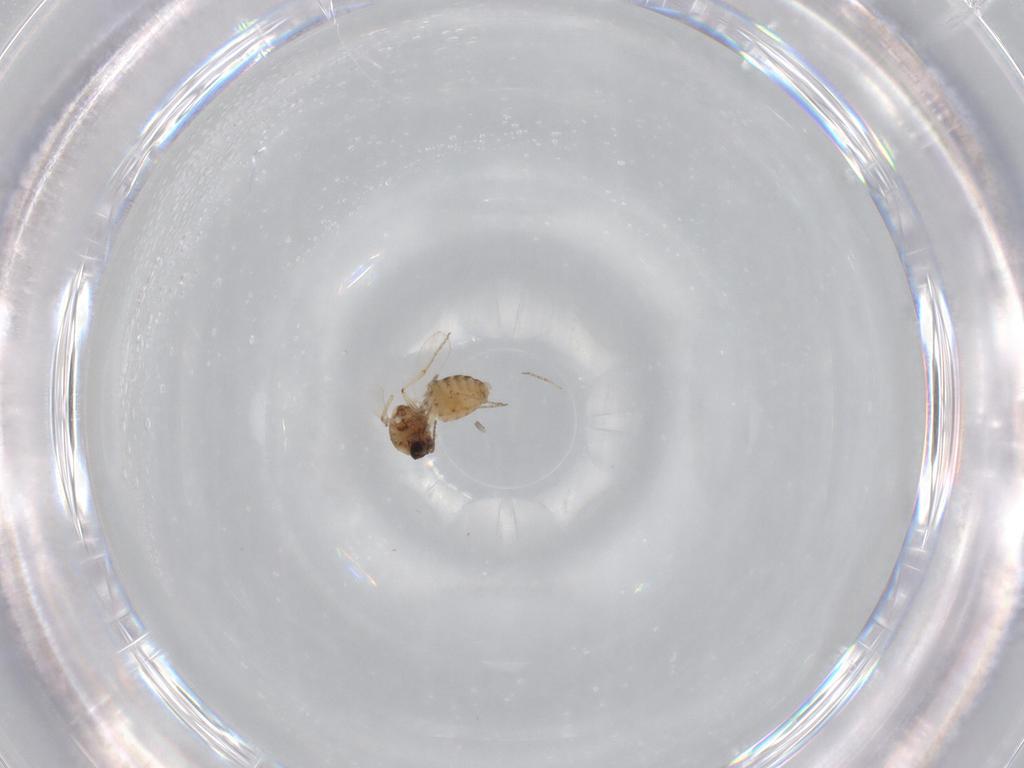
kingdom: Animalia
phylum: Arthropoda
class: Insecta
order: Diptera
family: Ceratopogonidae
